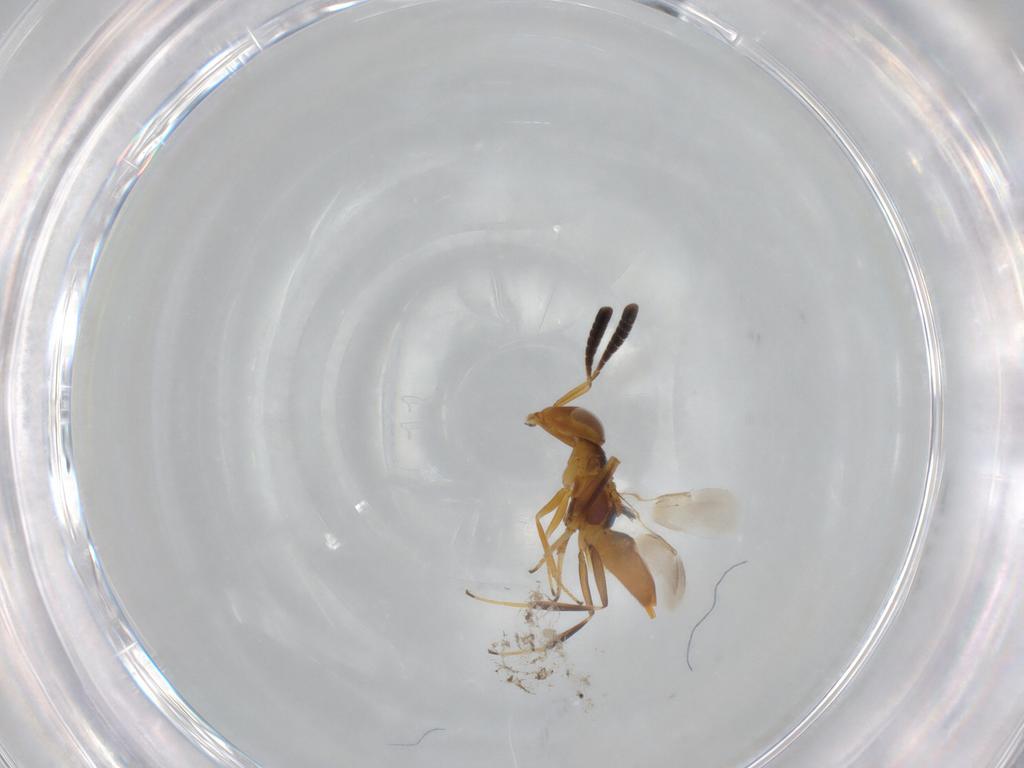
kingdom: Animalia
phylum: Arthropoda
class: Insecta
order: Hymenoptera
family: Encyrtidae
